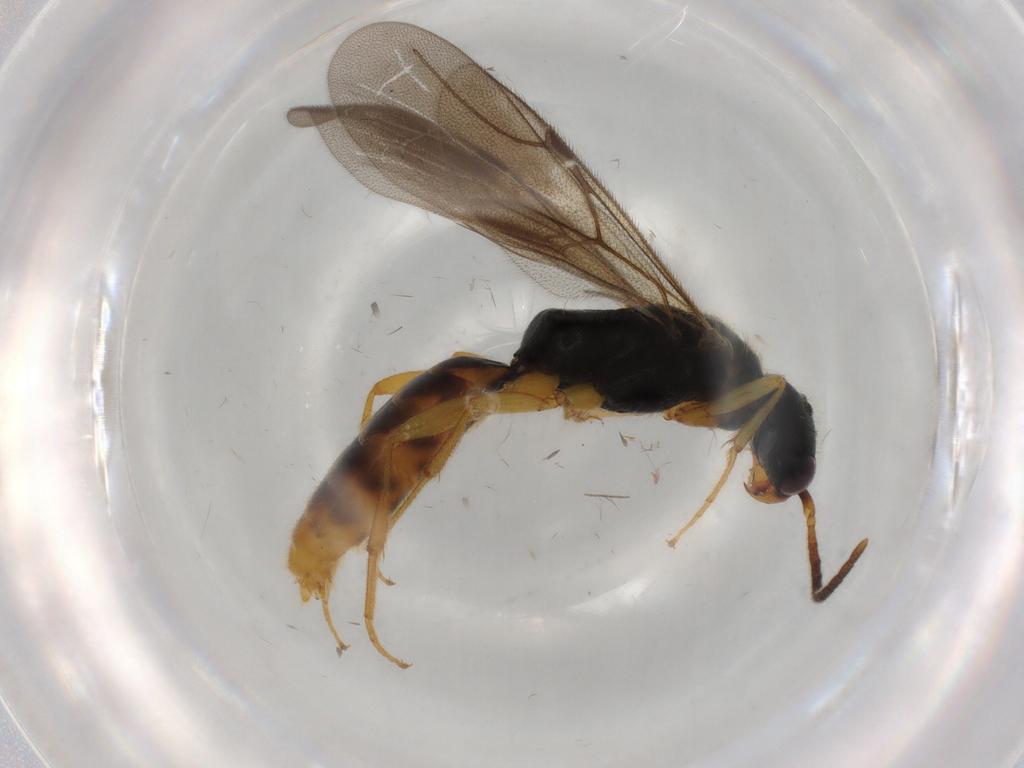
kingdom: Animalia
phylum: Arthropoda
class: Insecta
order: Hymenoptera
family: Bethylidae
